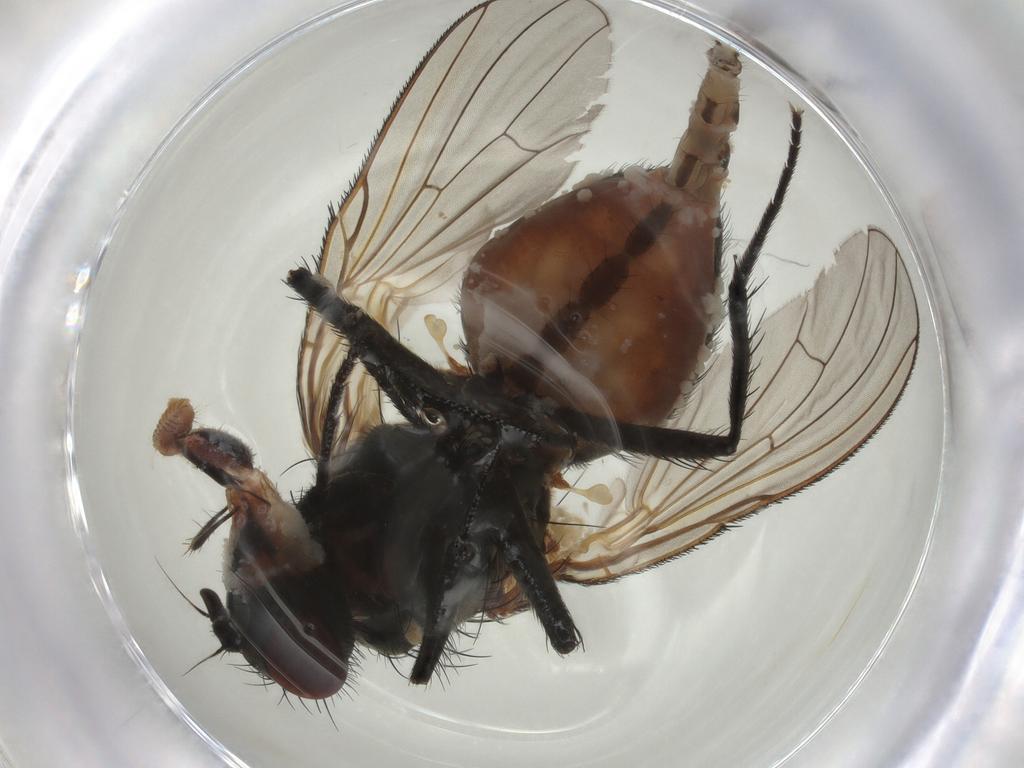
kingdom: Animalia
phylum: Arthropoda
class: Insecta
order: Diptera
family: Anthomyiidae
